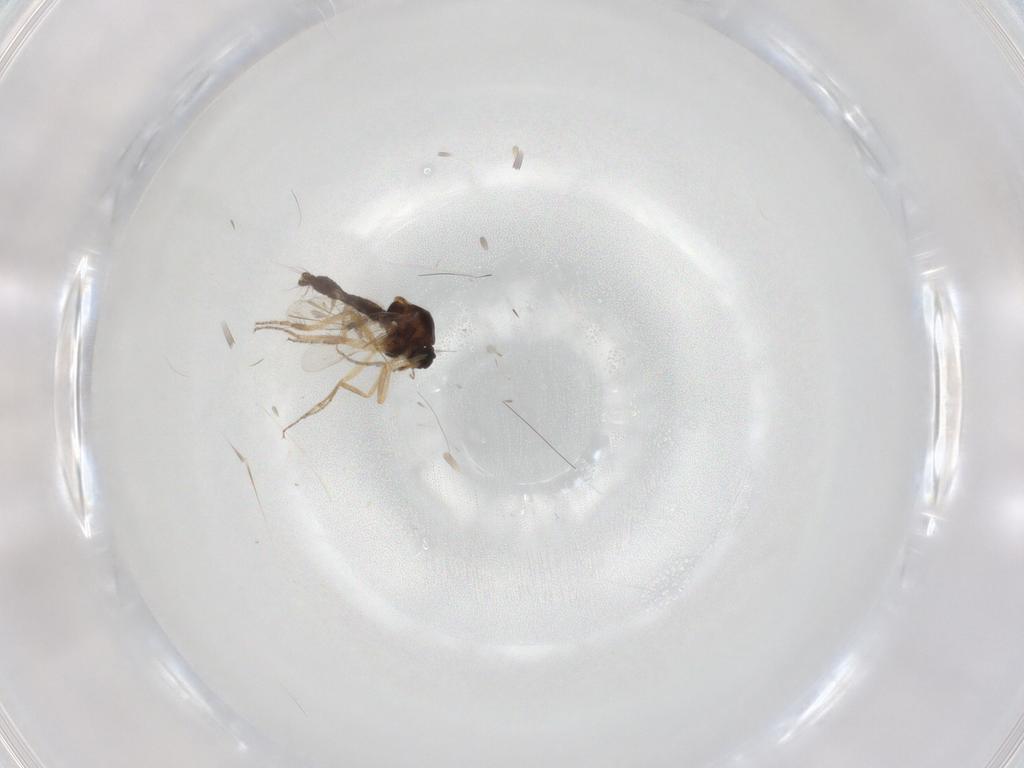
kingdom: Animalia
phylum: Arthropoda
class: Insecta
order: Diptera
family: Ceratopogonidae
